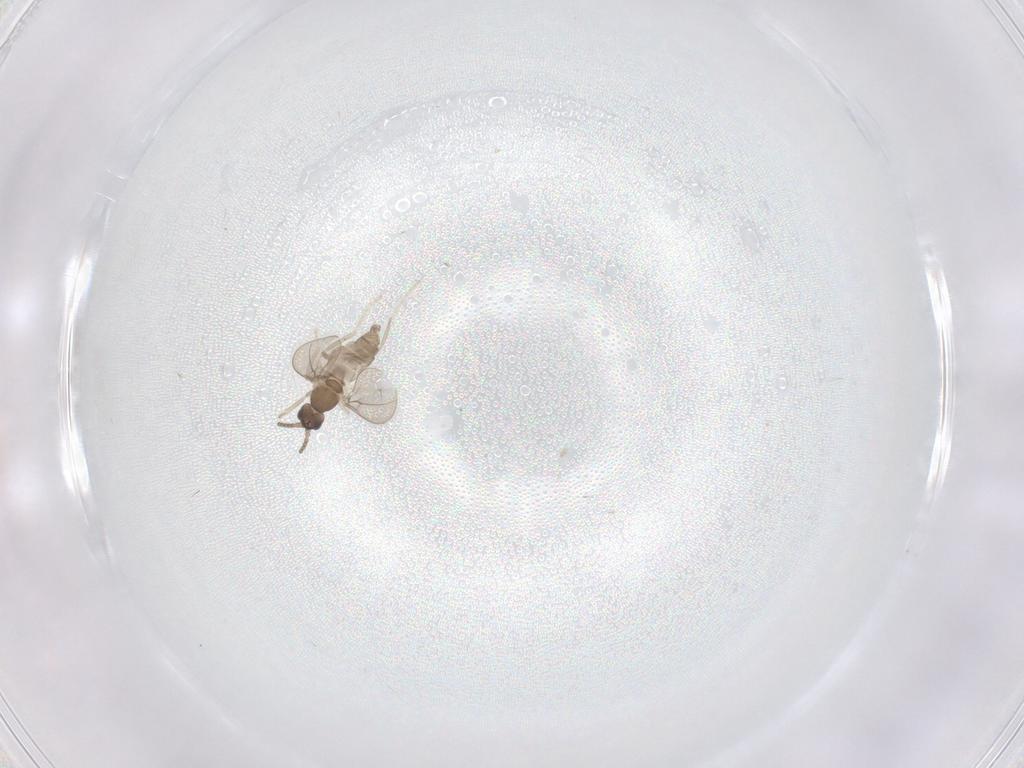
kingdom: Animalia
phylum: Arthropoda
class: Insecta
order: Diptera
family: Cecidomyiidae
